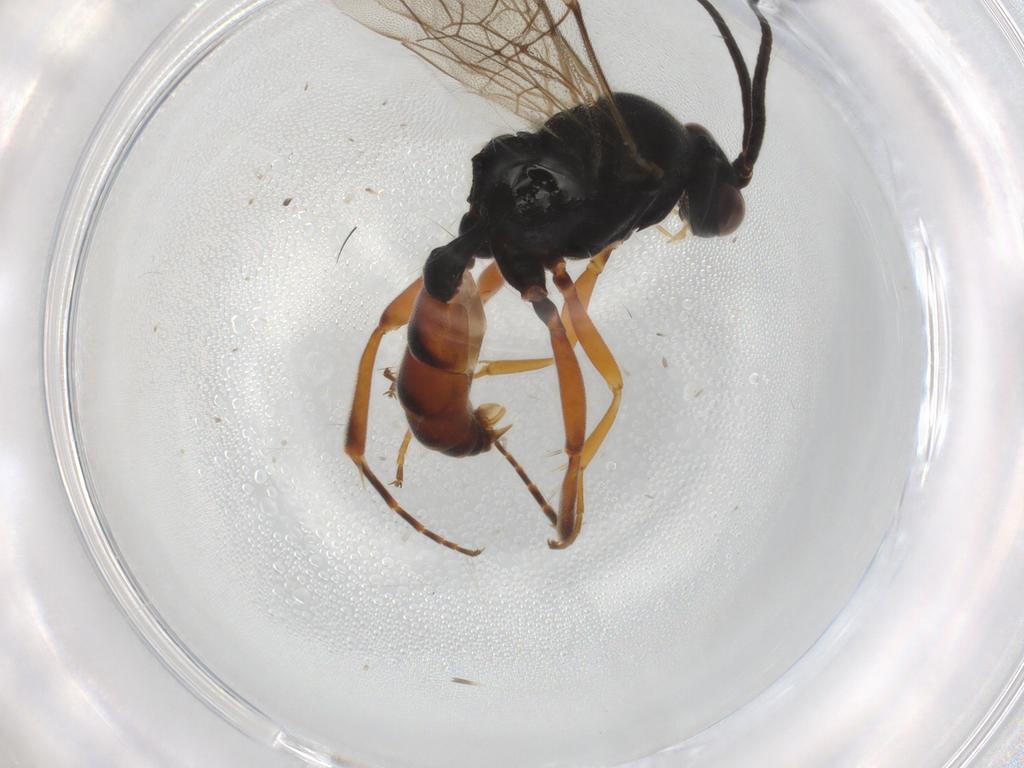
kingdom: Animalia
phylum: Arthropoda
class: Insecta
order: Hymenoptera
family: Ichneumonidae
